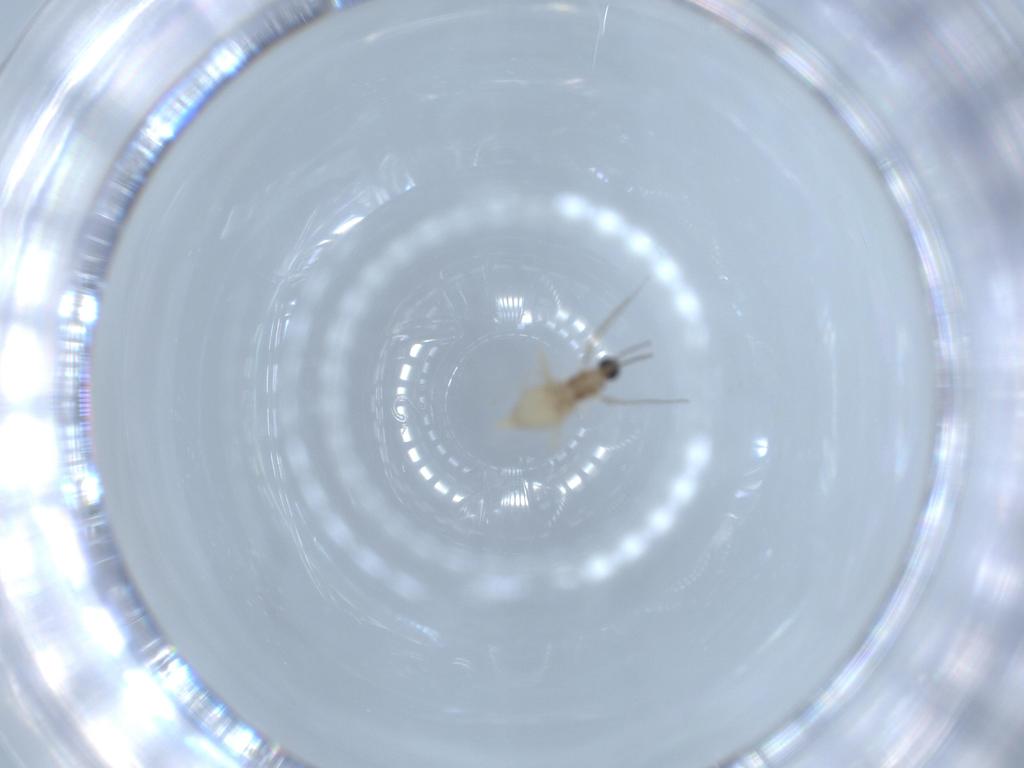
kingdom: Animalia
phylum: Arthropoda
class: Insecta
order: Diptera
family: Cecidomyiidae
